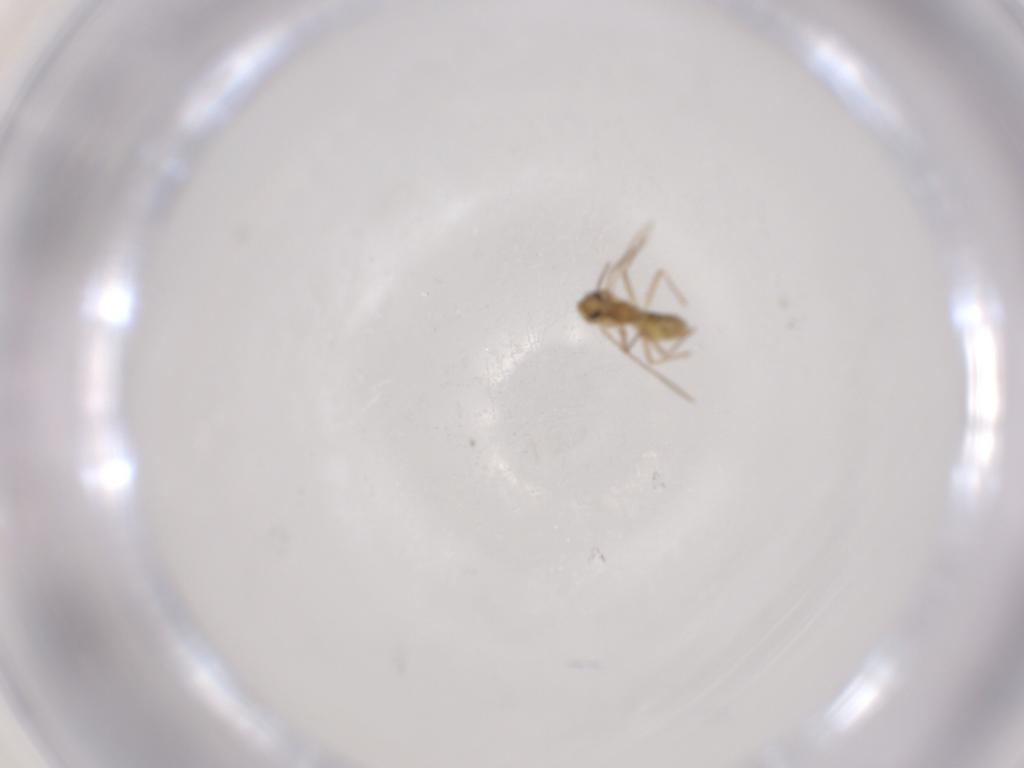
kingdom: Animalia
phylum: Arthropoda
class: Insecta
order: Diptera
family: Chironomidae
